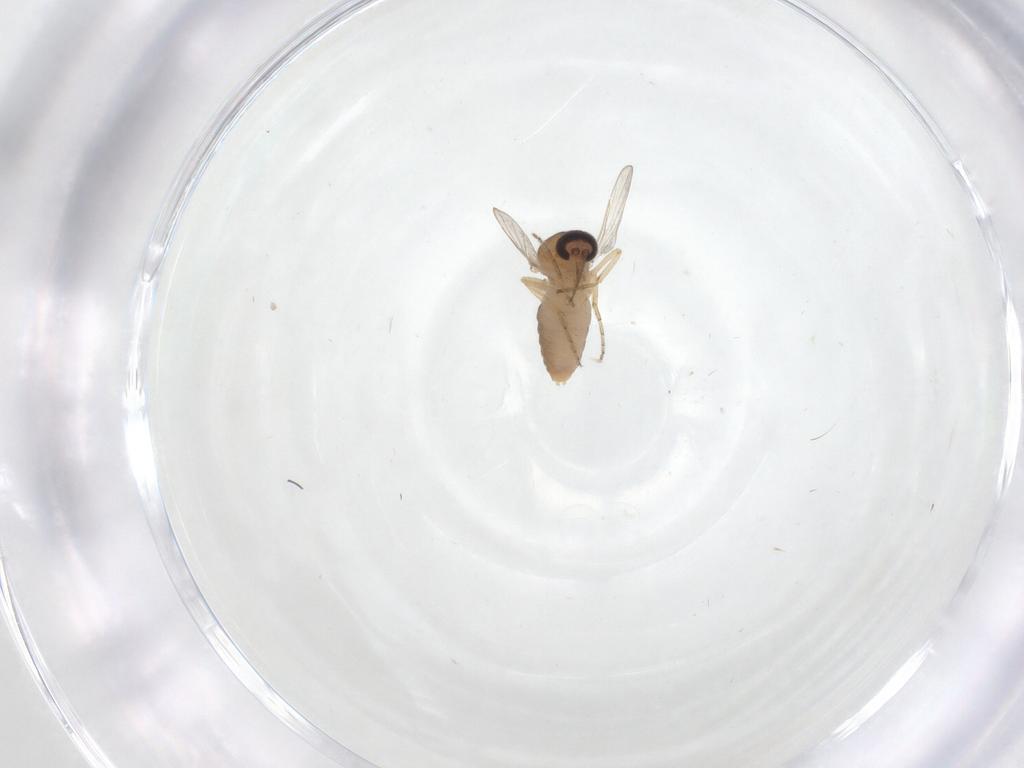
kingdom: Animalia
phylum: Arthropoda
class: Insecta
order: Diptera
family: Ceratopogonidae
